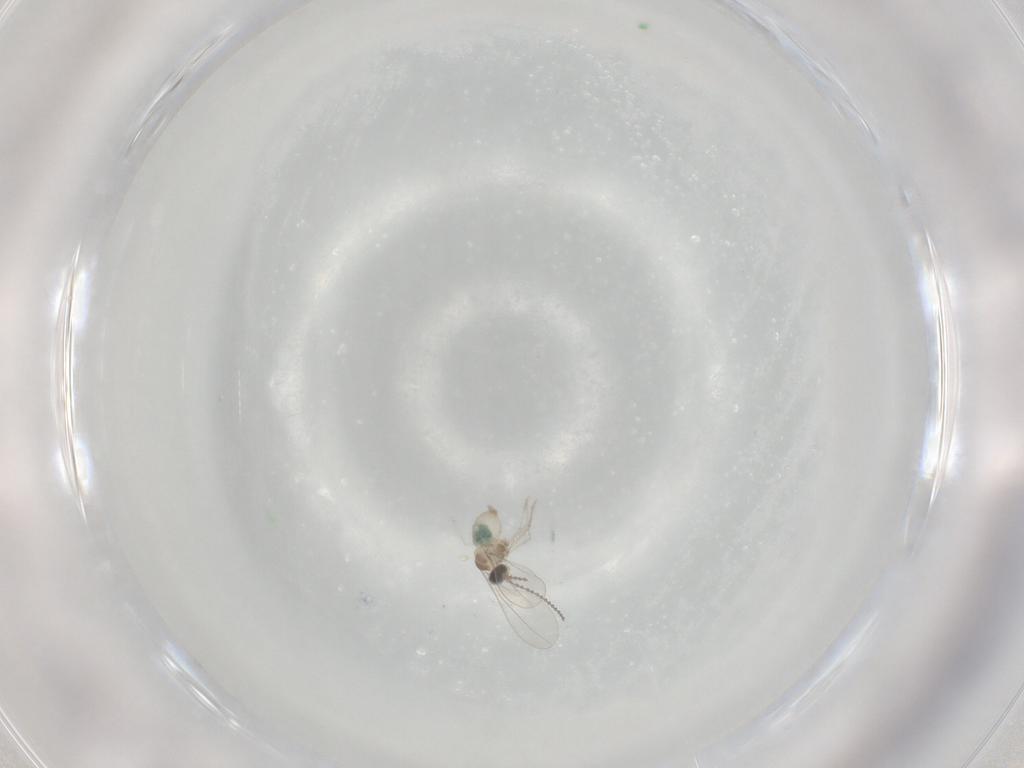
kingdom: Animalia
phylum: Arthropoda
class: Insecta
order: Diptera
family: Cecidomyiidae
